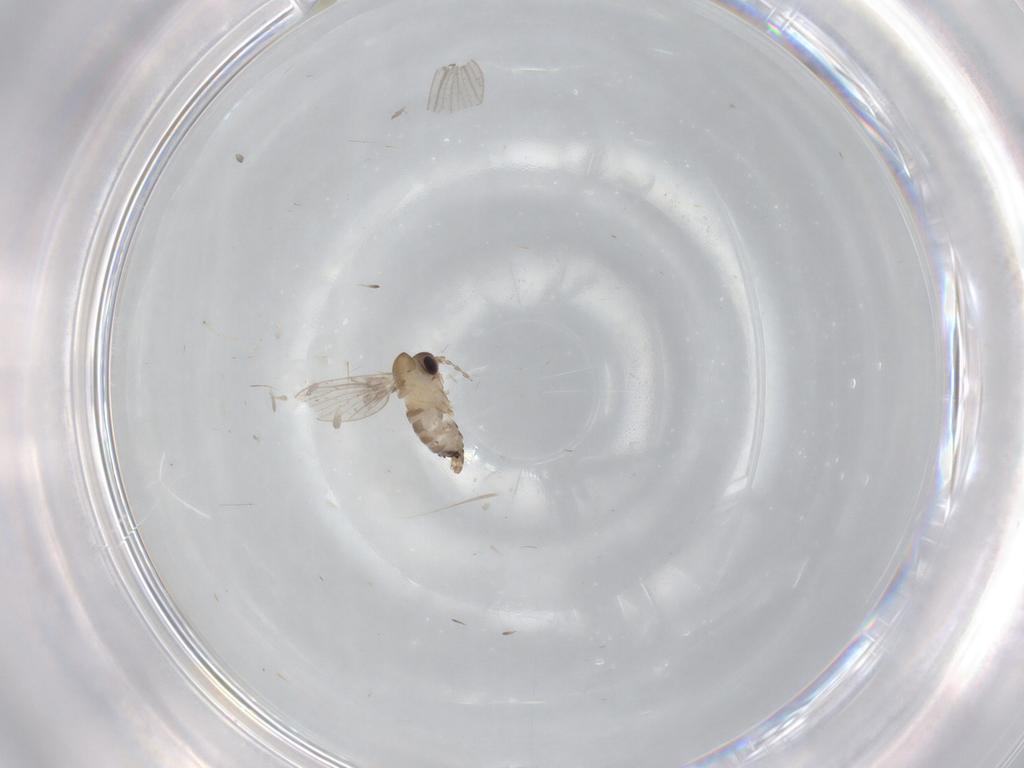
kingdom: Animalia
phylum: Arthropoda
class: Insecta
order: Diptera
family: Cecidomyiidae
